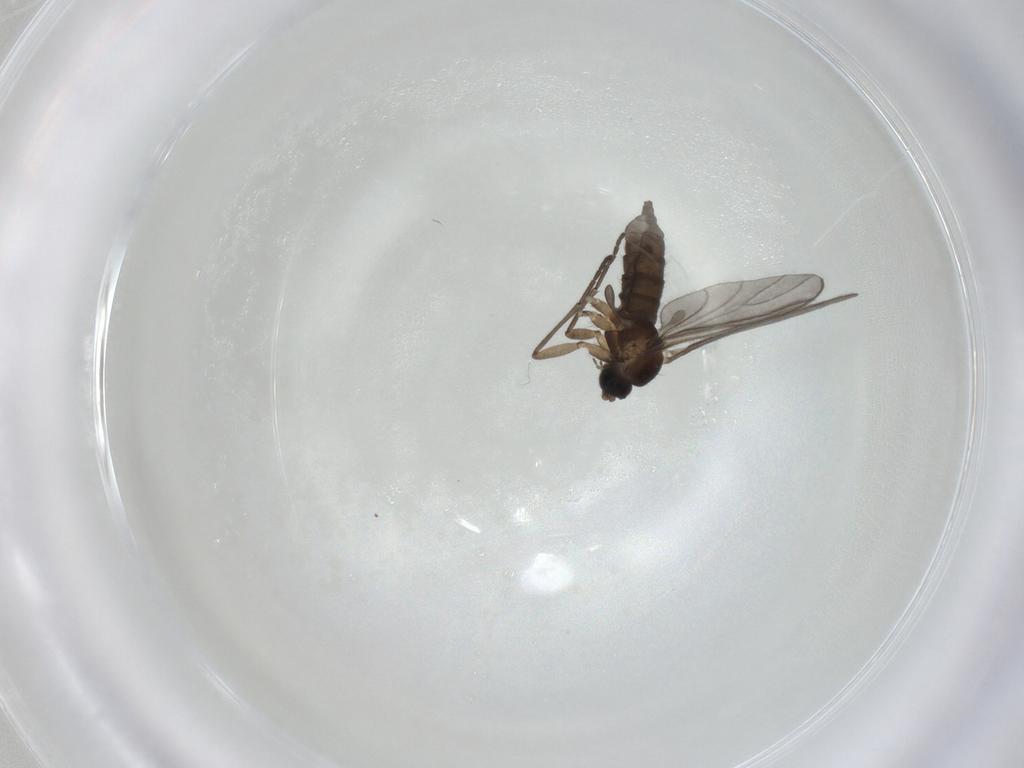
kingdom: Animalia
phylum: Arthropoda
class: Insecta
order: Diptera
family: Sciaridae
